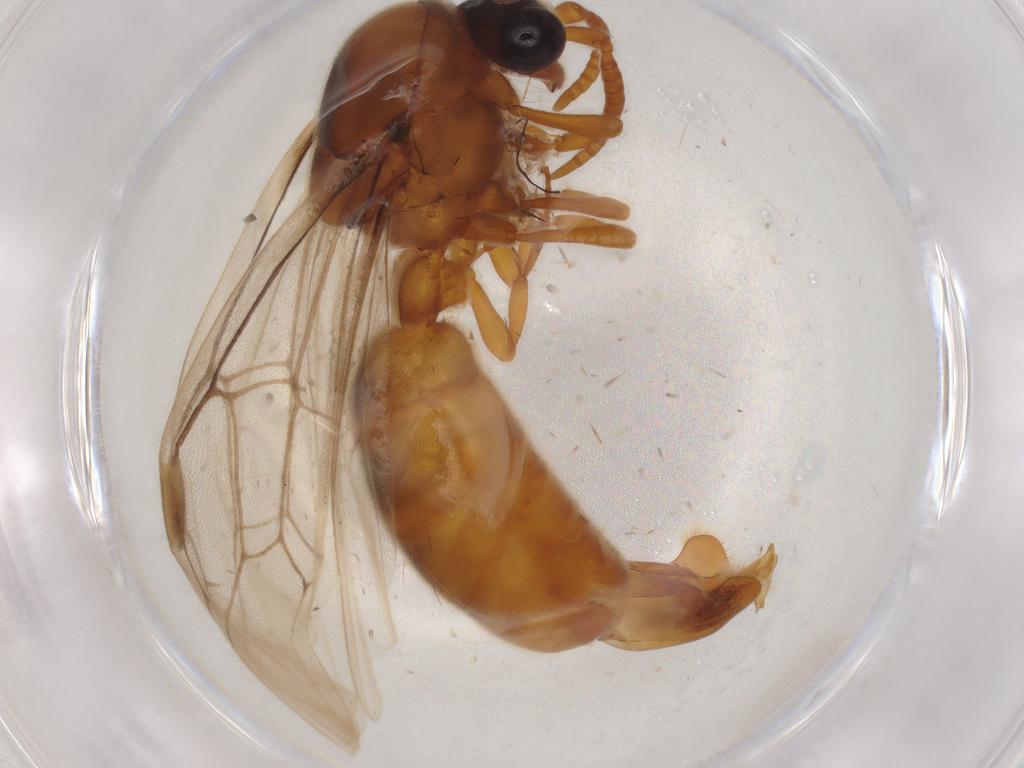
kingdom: Animalia
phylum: Arthropoda
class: Insecta
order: Hymenoptera
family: Formicidae
